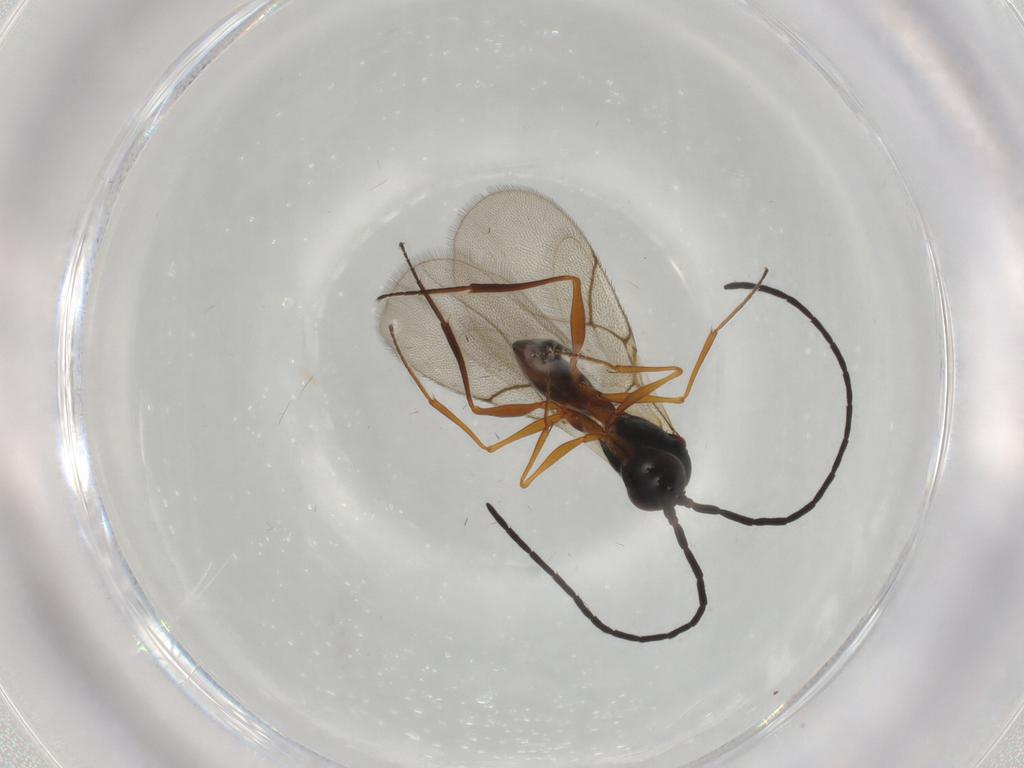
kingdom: Animalia
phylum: Arthropoda
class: Insecta
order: Hymenoptera
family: Figitidae
